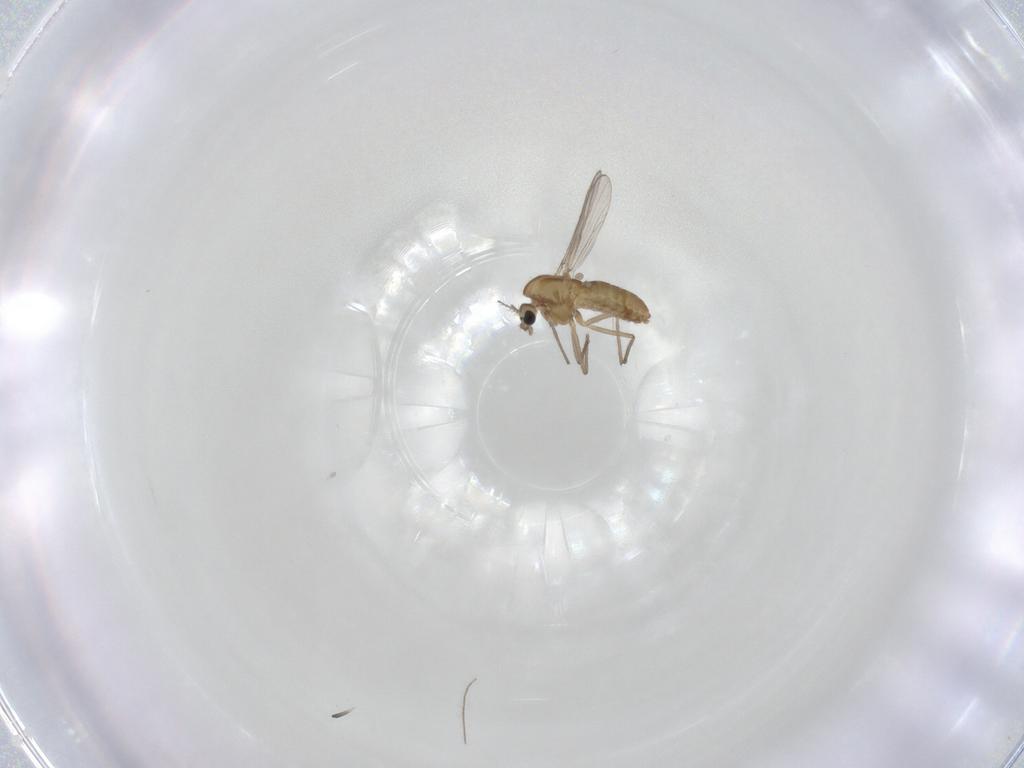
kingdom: Animalia
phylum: Arthropoda
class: Insecta
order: Diptera
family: Chironomidae
